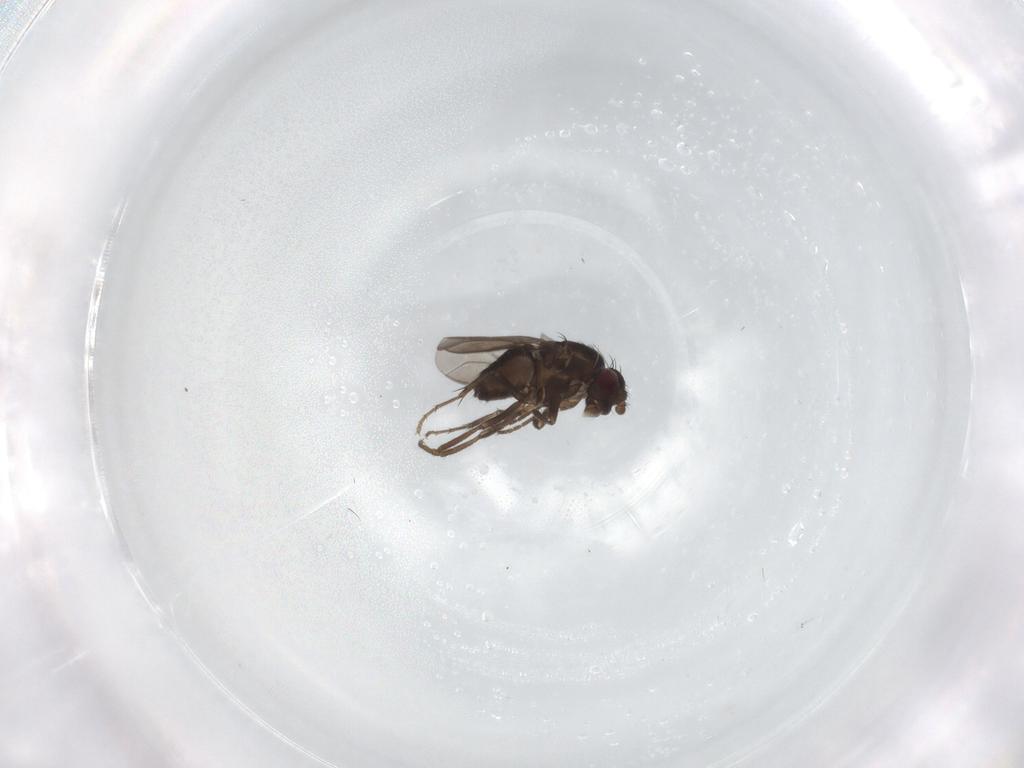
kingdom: Animalia
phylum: Arthropoda
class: Insecta
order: Diptera
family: Sphaeroceridae
